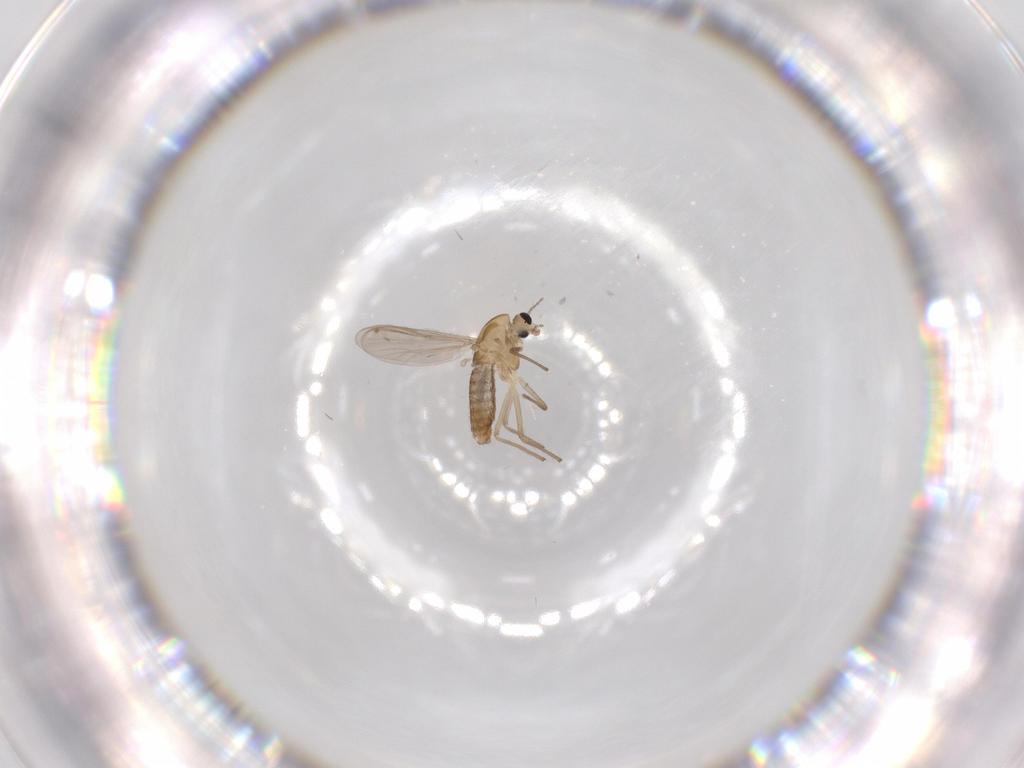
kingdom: Animalia
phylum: Arthropoda
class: Insecta
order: Diptera
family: Chironomidae
